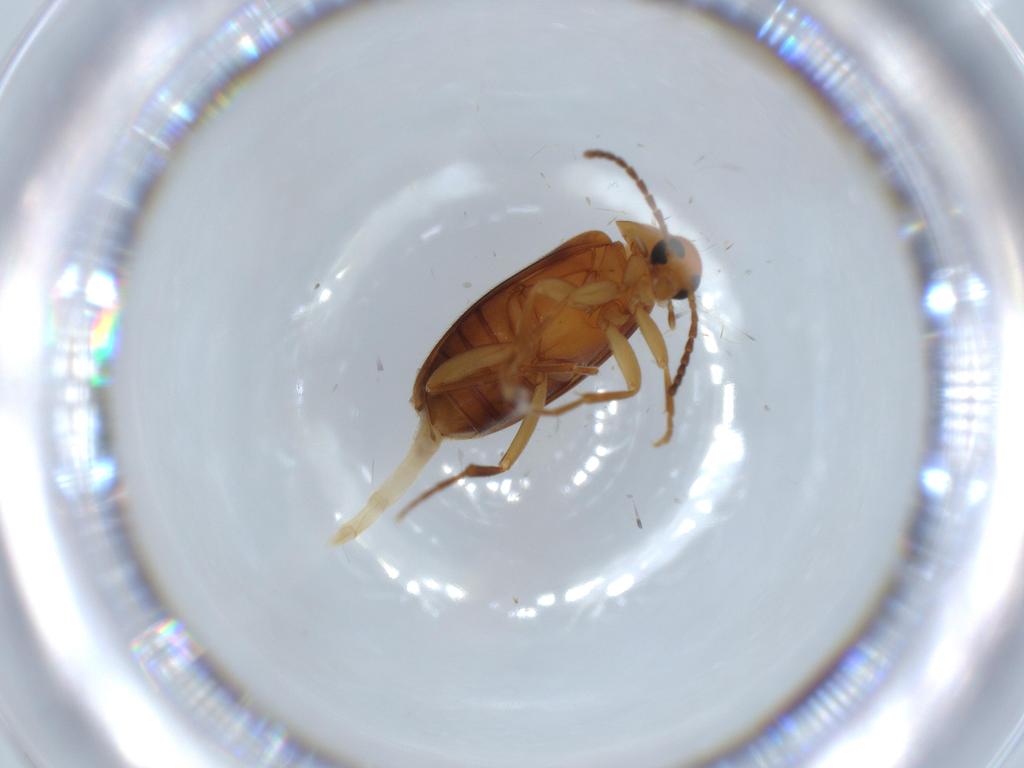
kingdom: Animalia
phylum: Arthropoda
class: Insecta
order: Coleoptera
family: Scraptiidae
